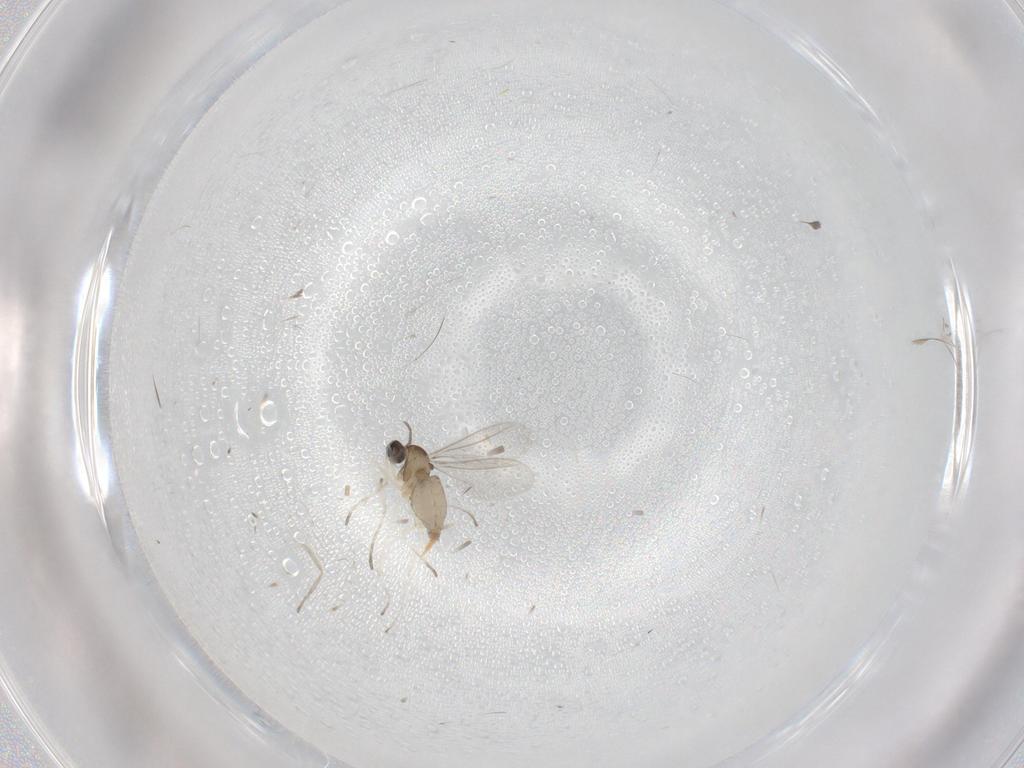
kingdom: Animalia
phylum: Arthropoda
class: Insecta
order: Diptera
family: Cecidomyiidae
